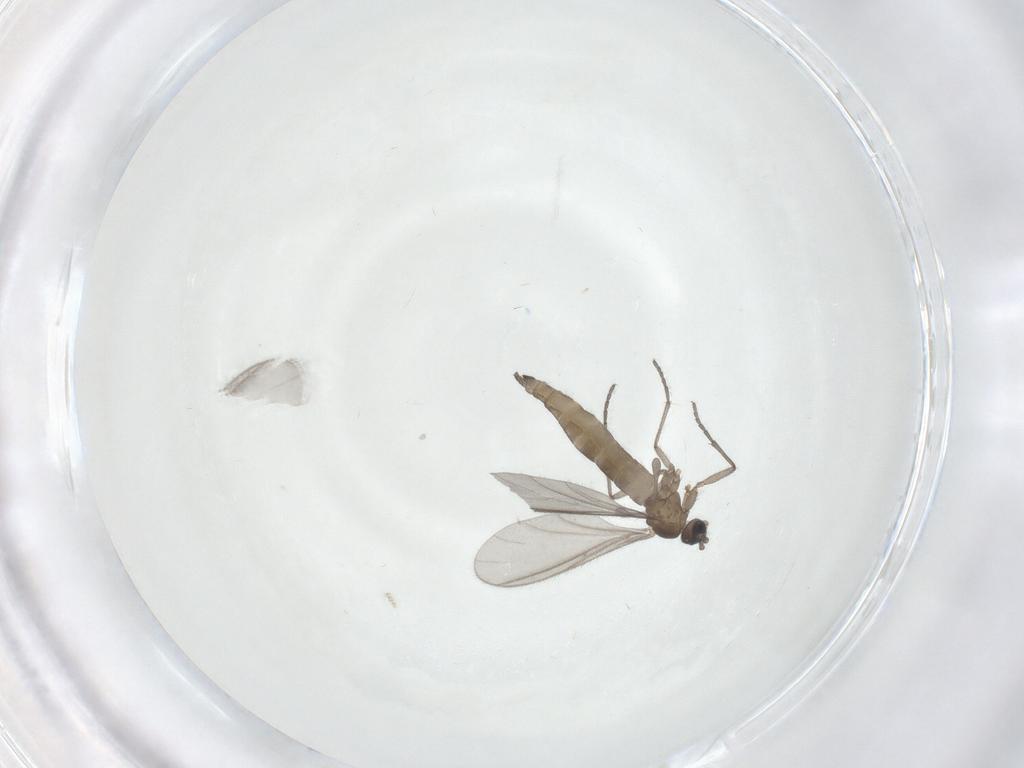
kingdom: Animalia
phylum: Arthropoda
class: Insecta
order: Diptera
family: Sciaridae
